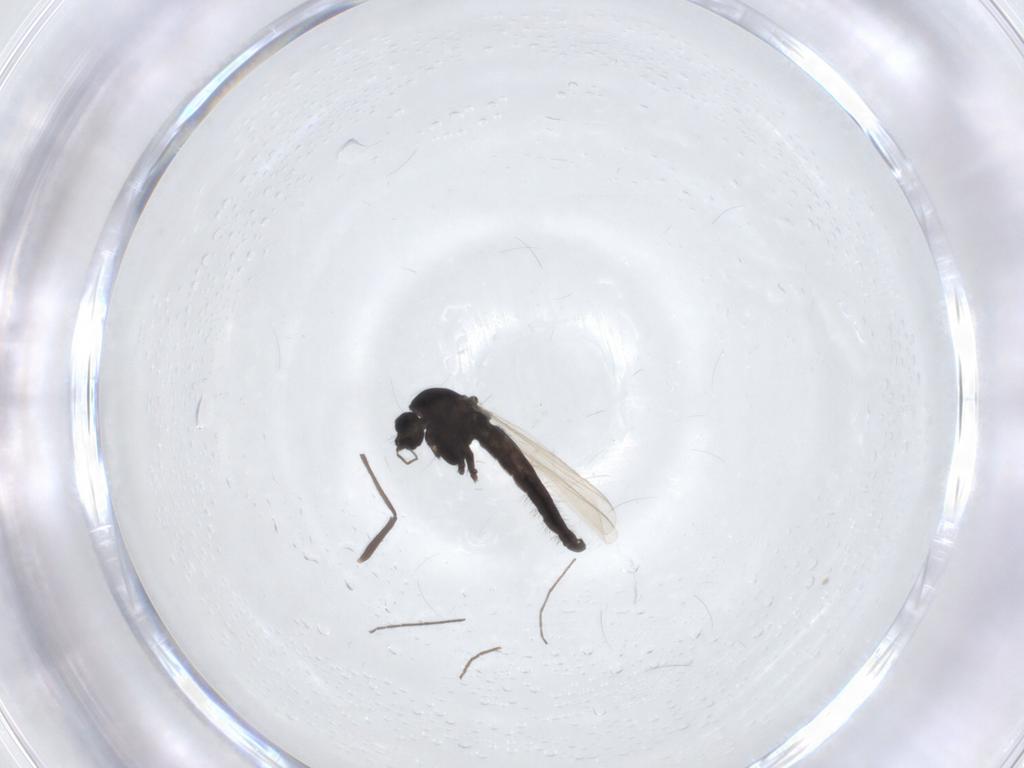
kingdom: Animalia
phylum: Arthropoda
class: Insecta
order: Diptera
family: Chironomidae
